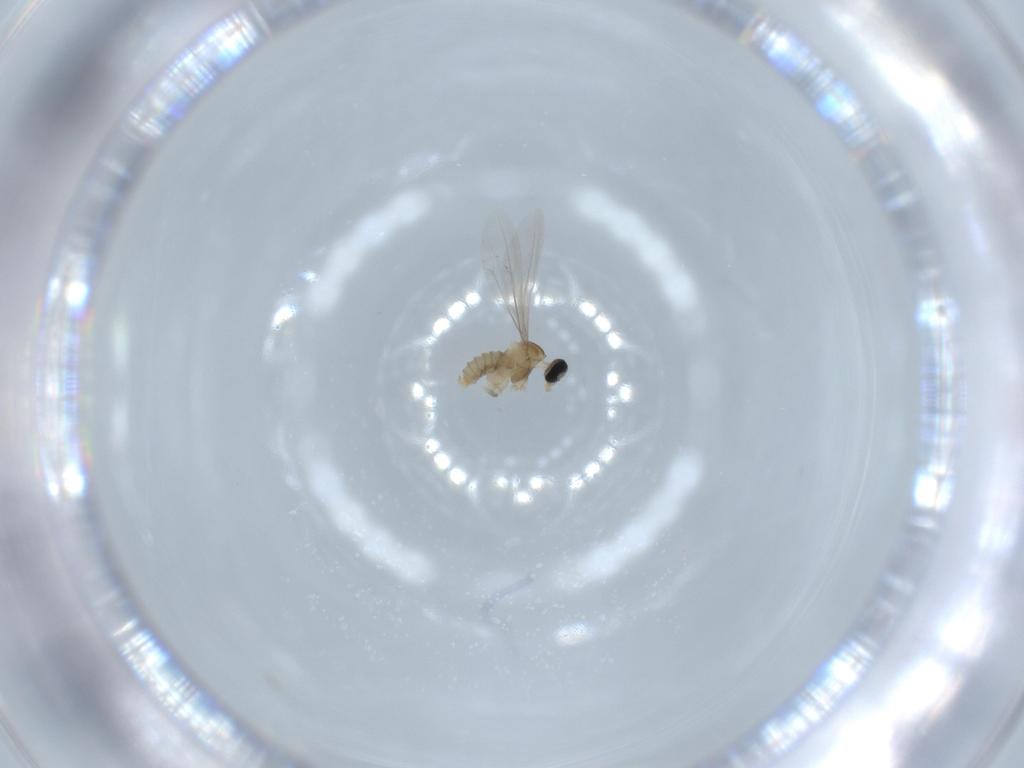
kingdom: Animalia
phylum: Arthropoda
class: Insecta
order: Diptera
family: Cecidomyiidae
